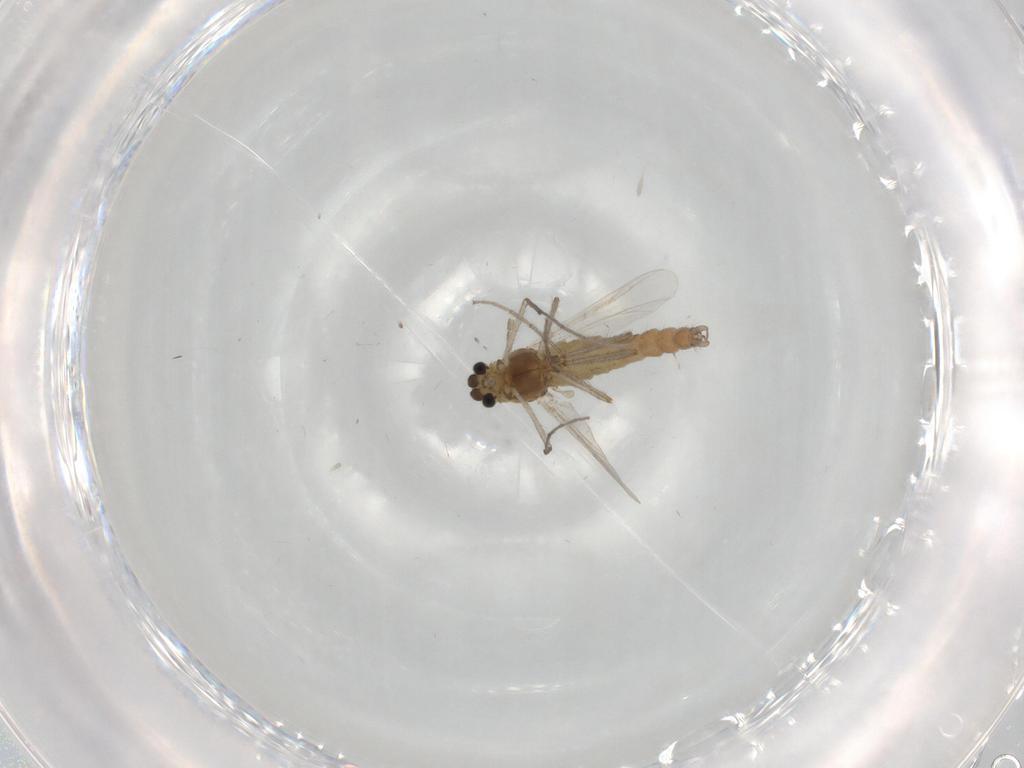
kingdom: Animalia
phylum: Arthropoda
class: Insecta
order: Diptera
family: Chironomidae
